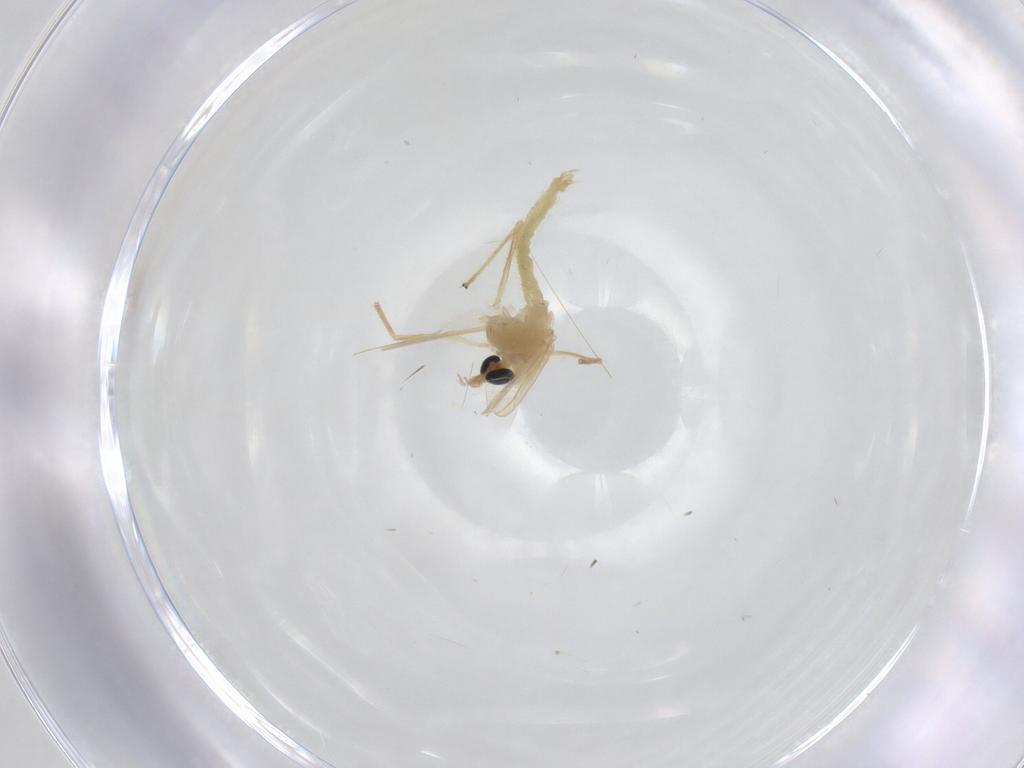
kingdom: Animalia
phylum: Arthropoda
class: Insecta
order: Diptera
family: Chironomidae
